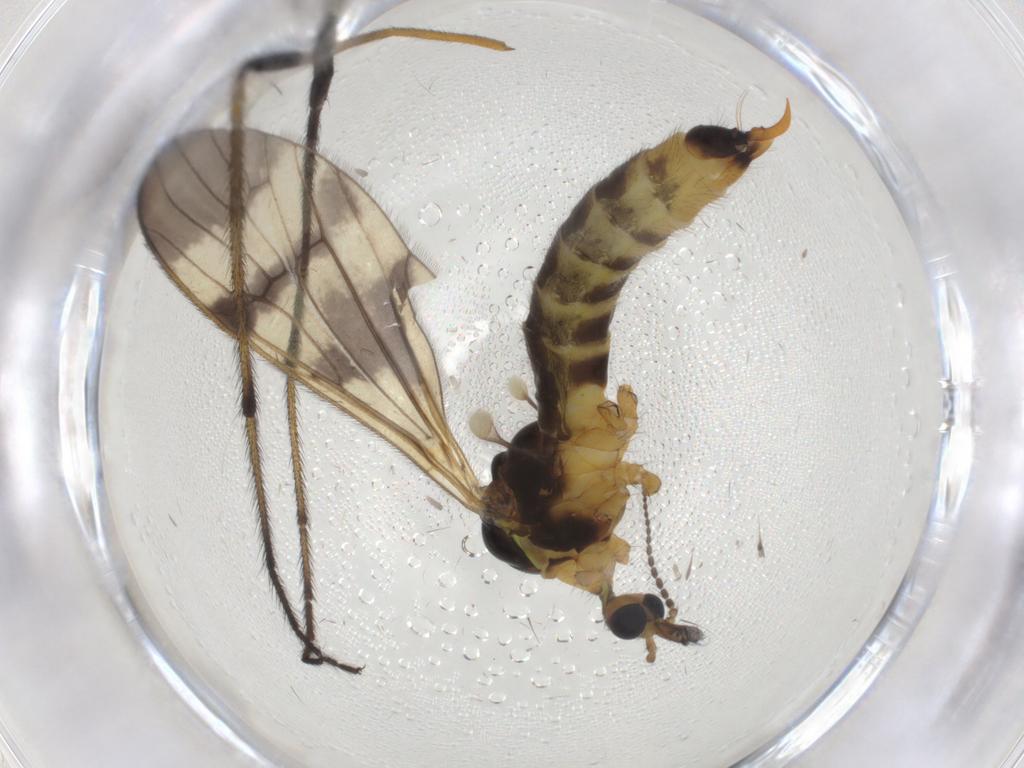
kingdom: Animalia
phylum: Arthropoda
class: Insecta
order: Diptera
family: Limoniidae
